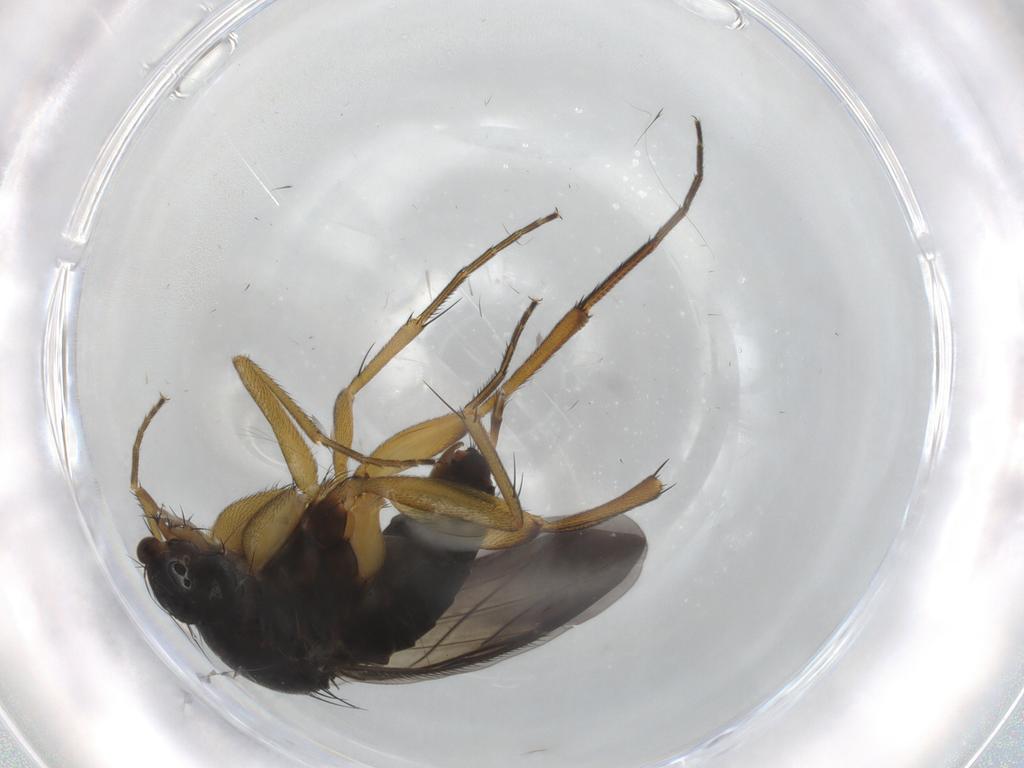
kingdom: Animalia
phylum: Arthropoda
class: Insecta
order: Diptera
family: Phoridae
